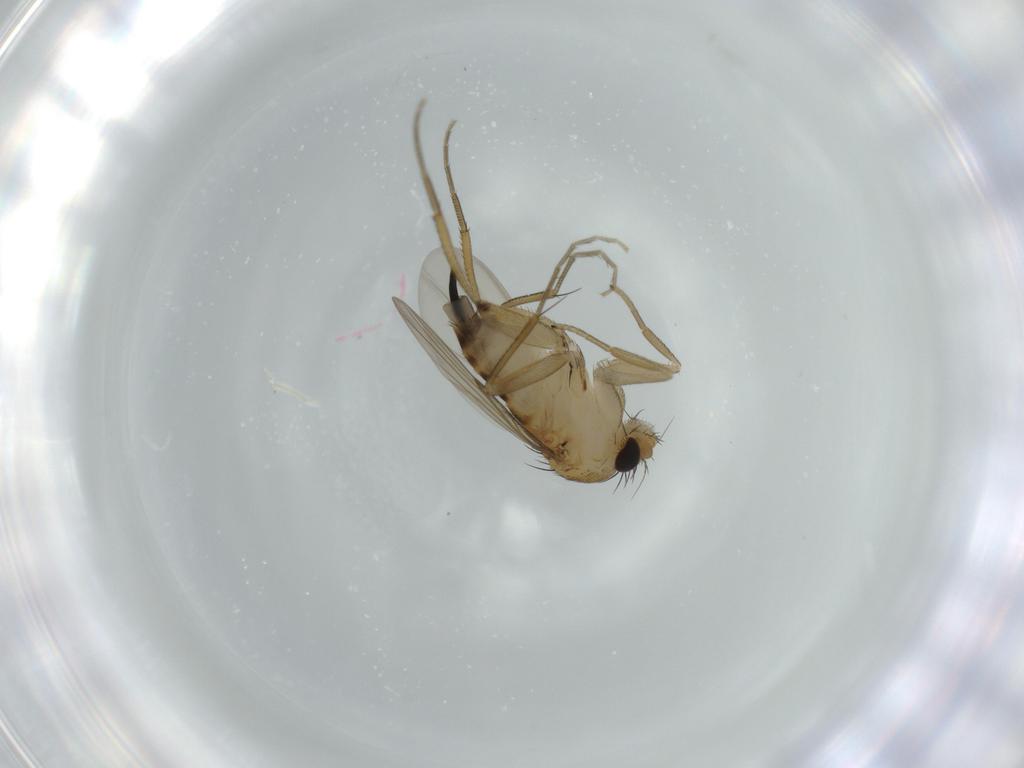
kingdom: Animalia
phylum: Arthropoda
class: Insecta
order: Diptera
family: Phoridae
